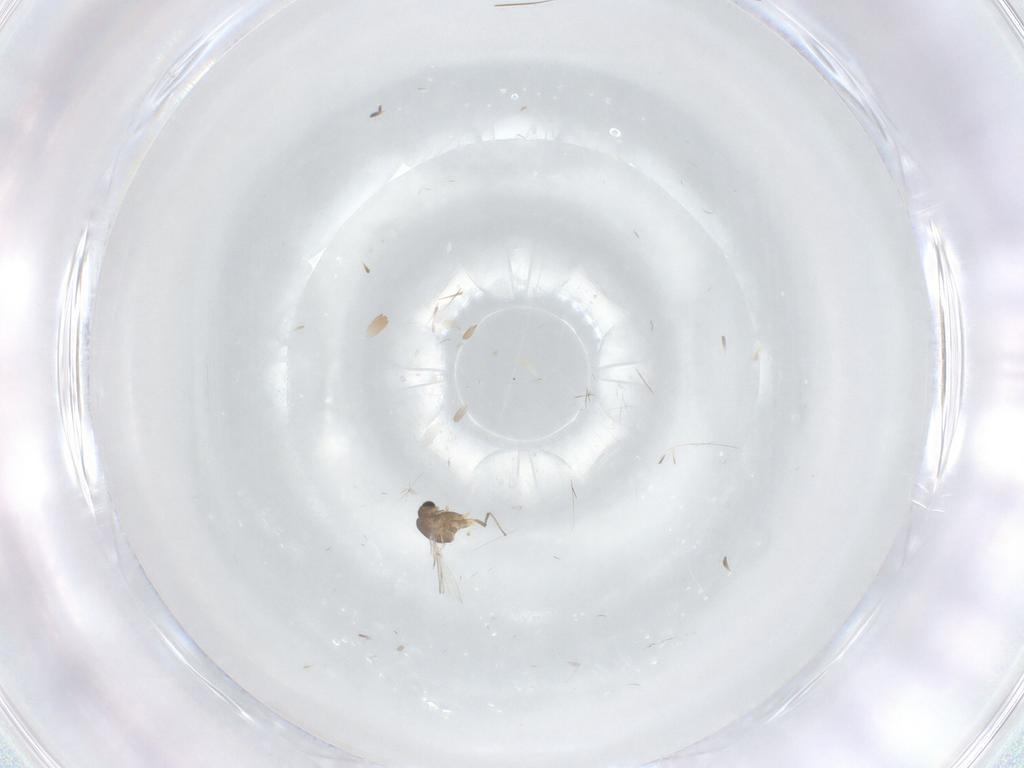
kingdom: Animalia
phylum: Arthropoda
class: Insecta
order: Diptera
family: Chironomidae
